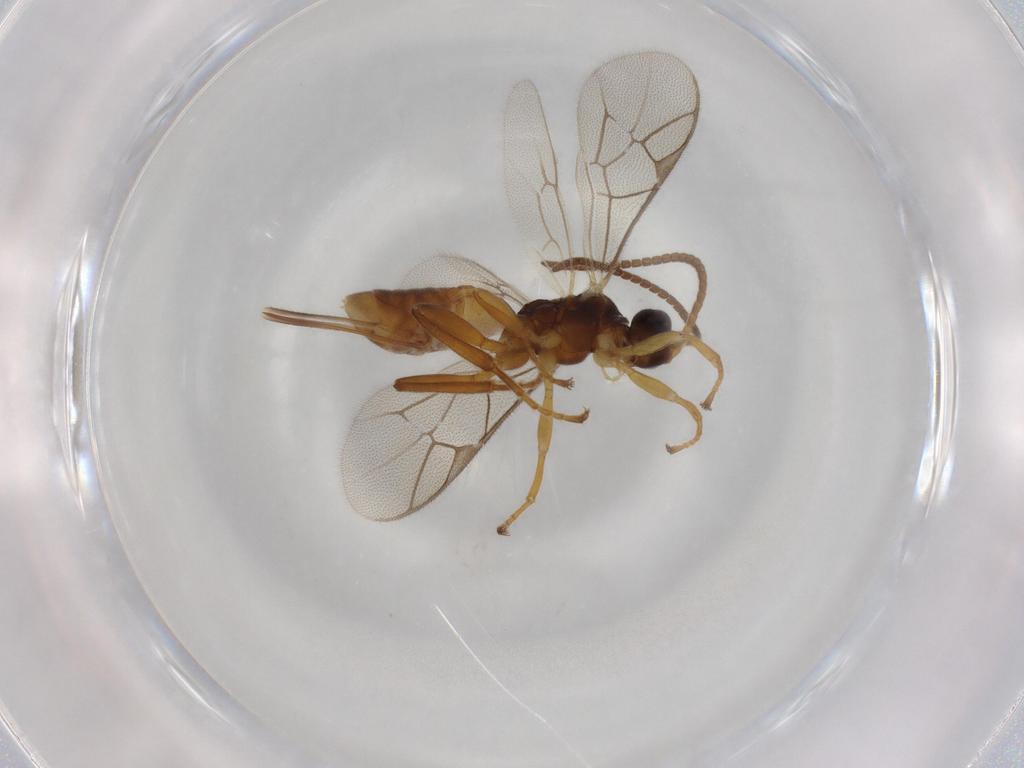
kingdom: Animalia
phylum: Arthropoda
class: Insecta
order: Hymenoptera
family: Ichneumonidae
